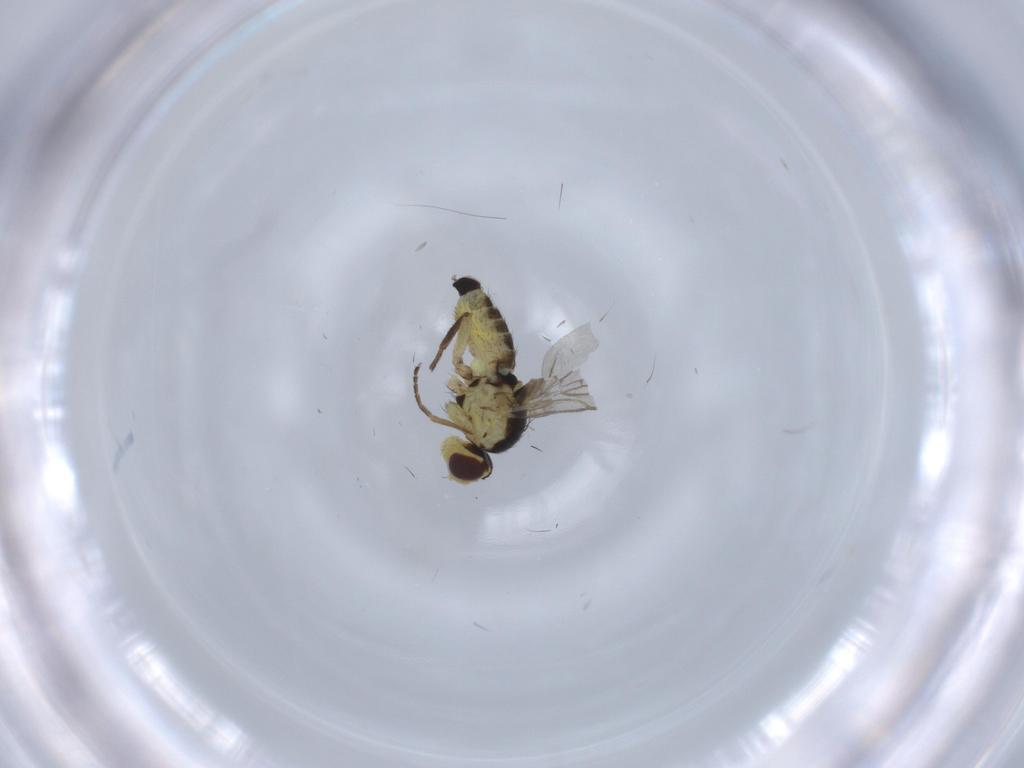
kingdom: Animalia
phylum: Arthropoda
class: Insecta
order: Diptera
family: Agromyzidae
